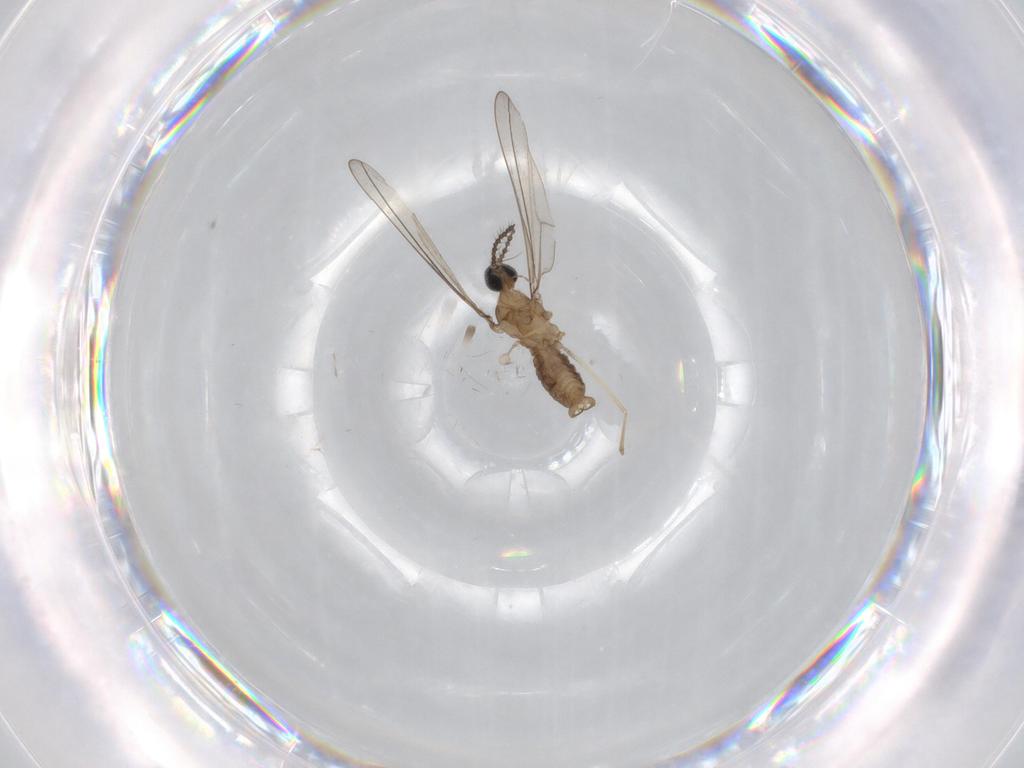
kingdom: Animalia
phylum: Arthropoda
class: Insecta
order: Diptera
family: Cecidomyiidae
